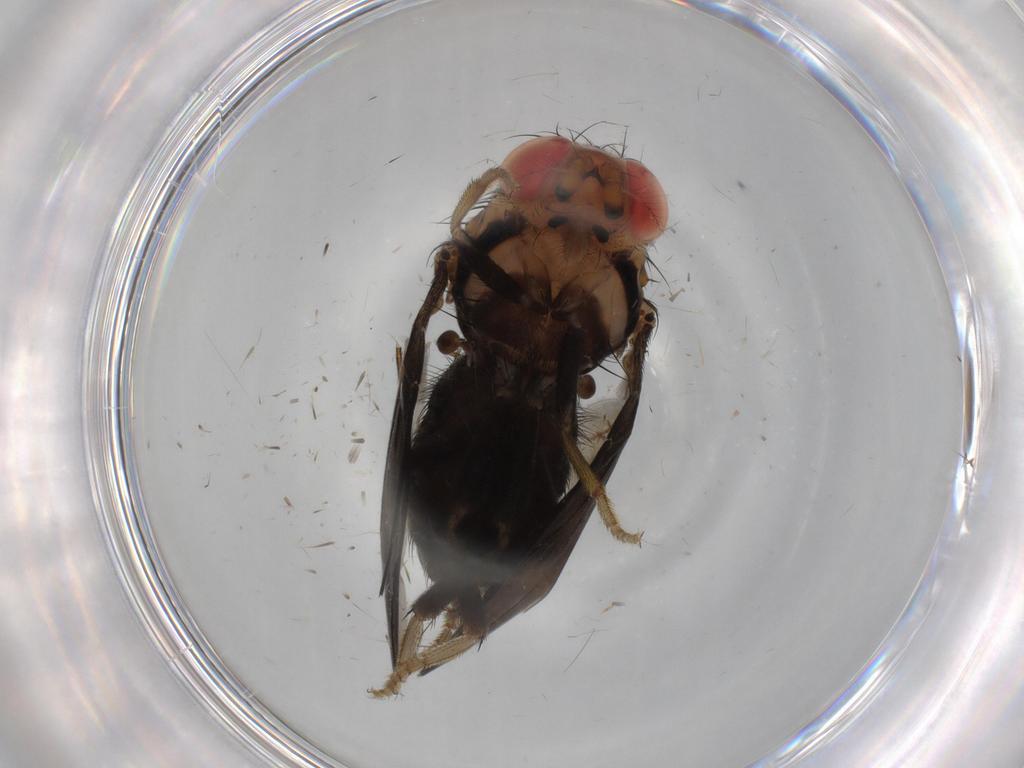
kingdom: Animalia
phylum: Arthropoda
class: Insecta
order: Diptera
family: Drosophilidae
